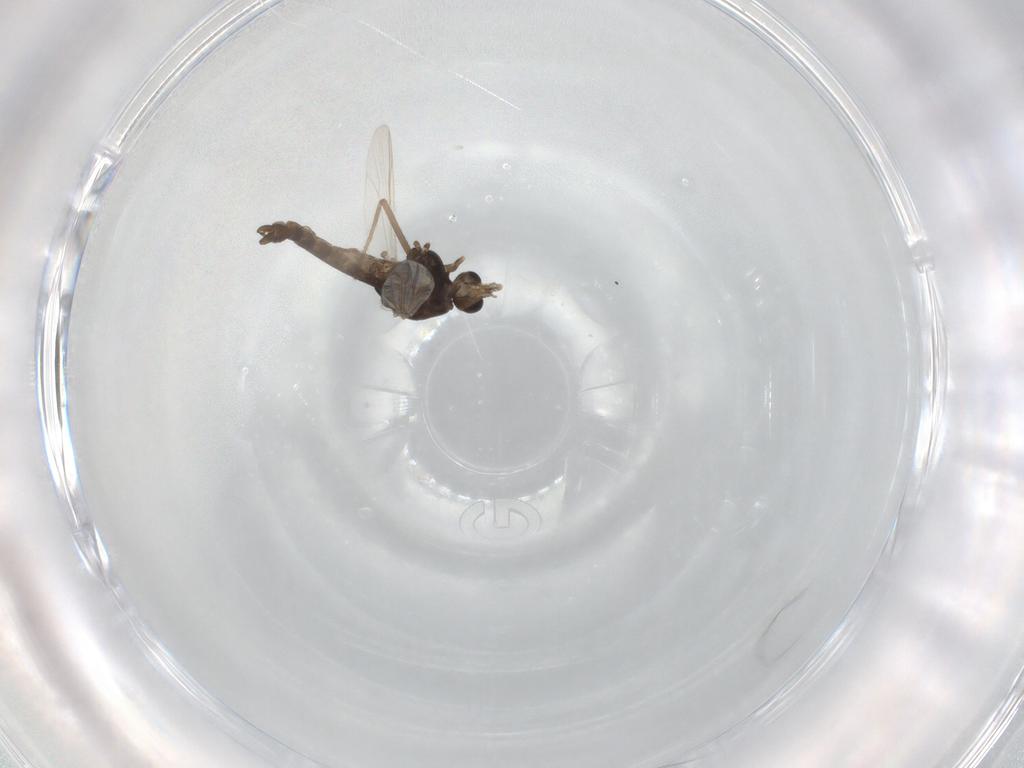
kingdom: Animalia
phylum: Arthropoda
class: Insecta
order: Diptera
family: Chironomidae
